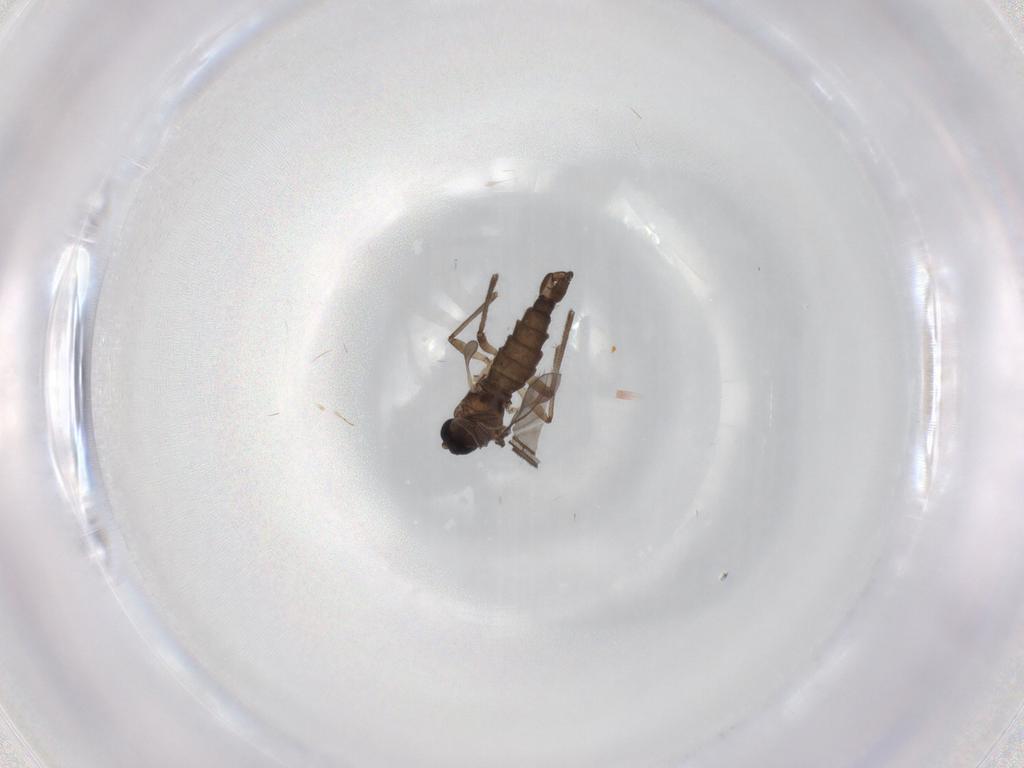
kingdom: Animalia
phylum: Arthropoda
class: Insecta
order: Diptera
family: Sciaridae
